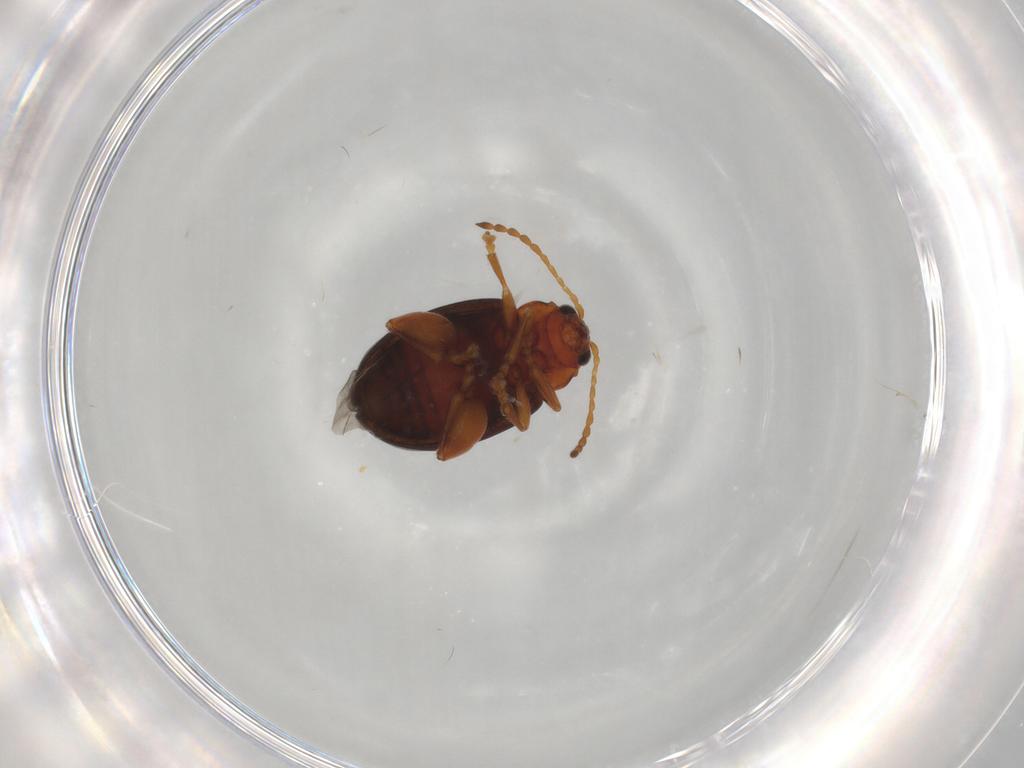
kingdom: Animalia
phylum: Arthropoda
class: Insecta
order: Coleoptera
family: Chrysomelidae
